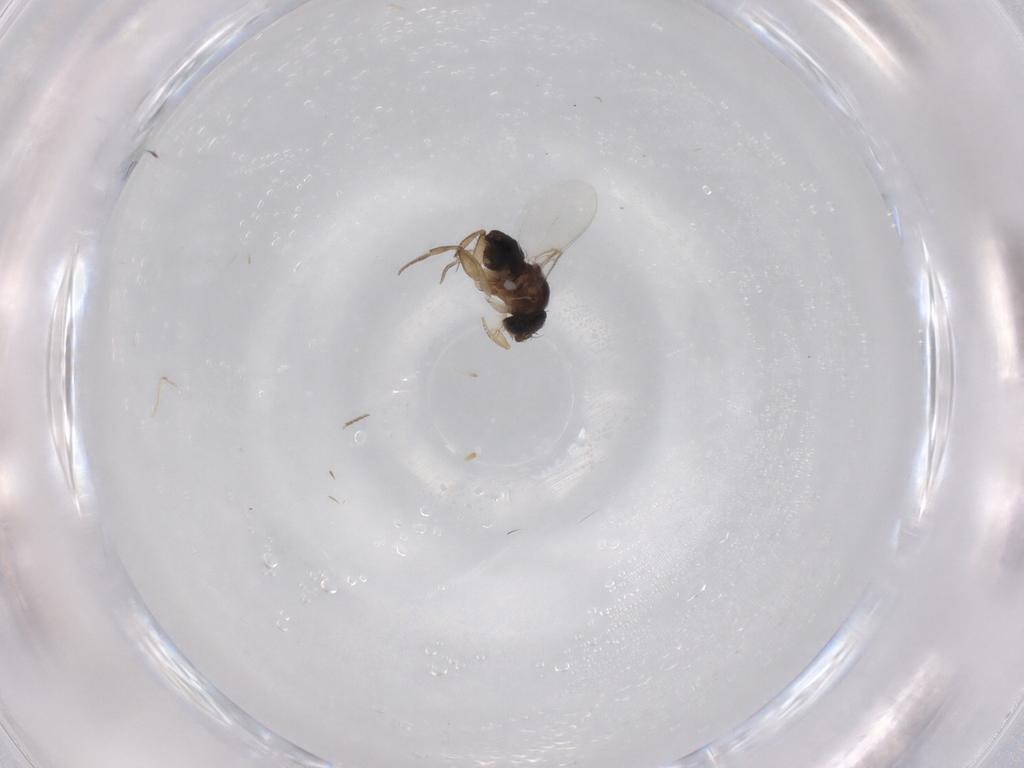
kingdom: Animalia
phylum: Arthropoda
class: Insecta
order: Diptera
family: Phoridae
